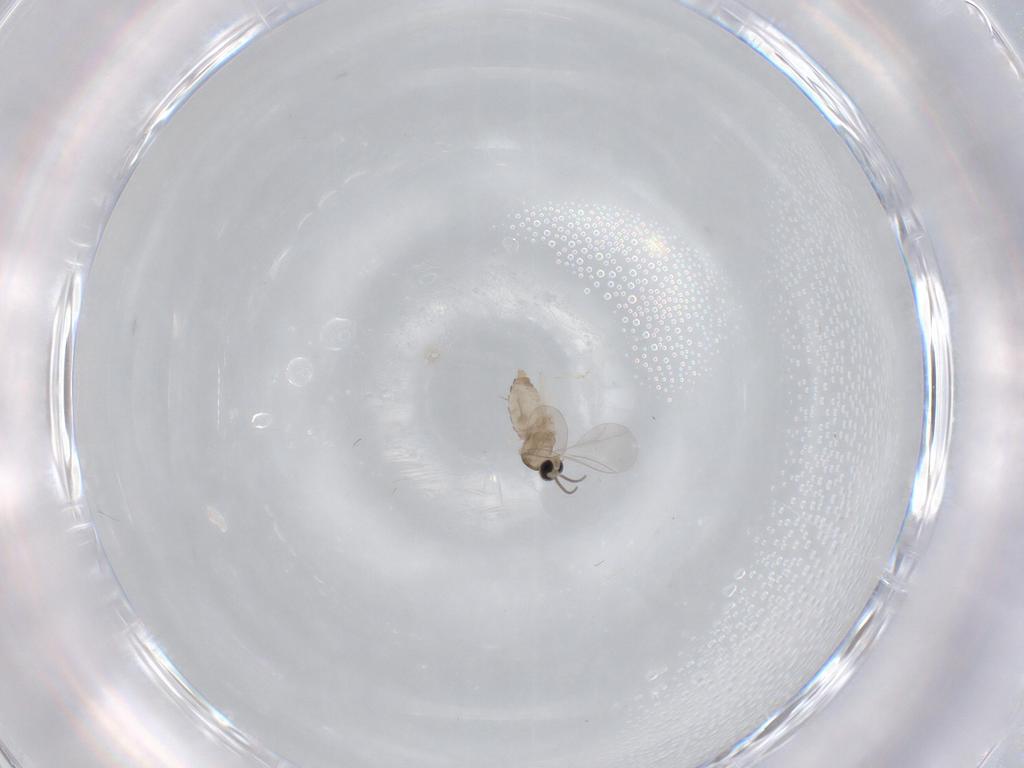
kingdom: Animalia
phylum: Arthropoda
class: Insecta
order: Diptera
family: Cecidomyiidae
